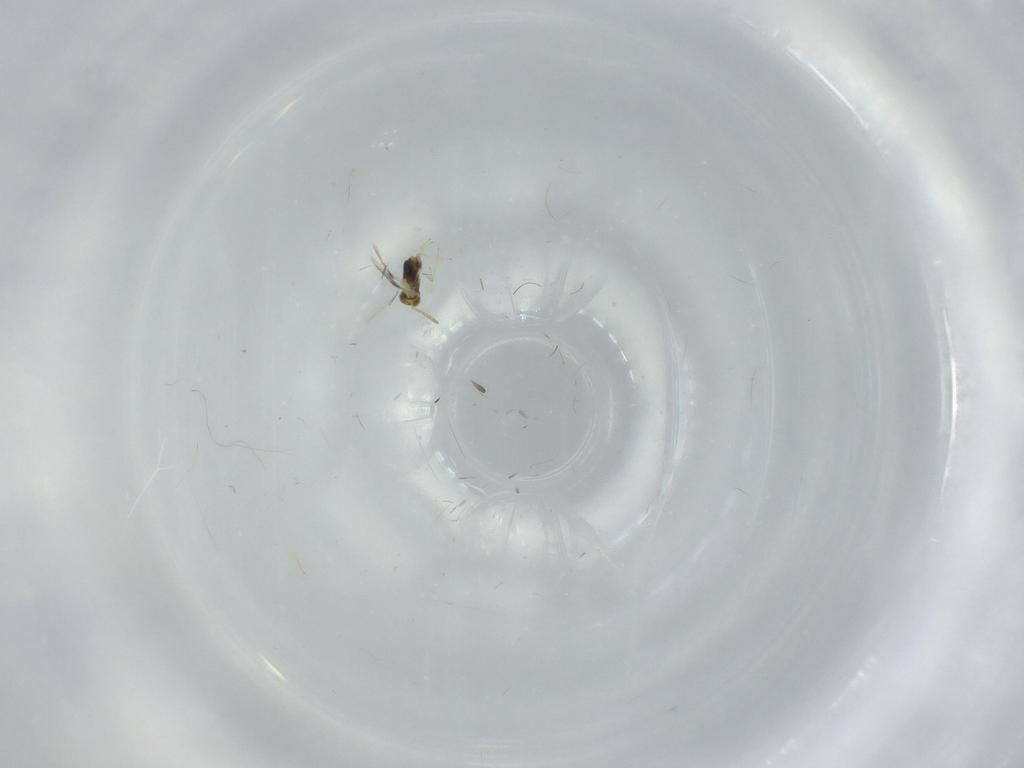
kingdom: Animalia
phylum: Arthropoda
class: Insecta
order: Hymenoptera
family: Aphelinidae
